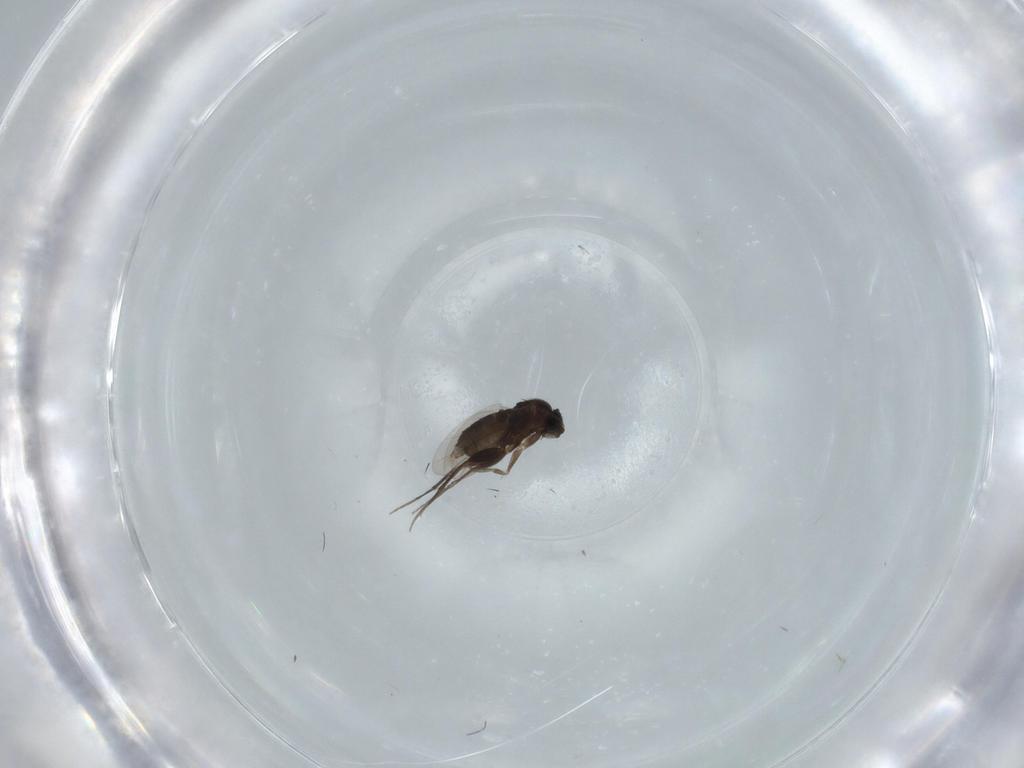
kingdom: Animalia
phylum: Arthropoda
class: Insecta
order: Diptera
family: Phoridae
